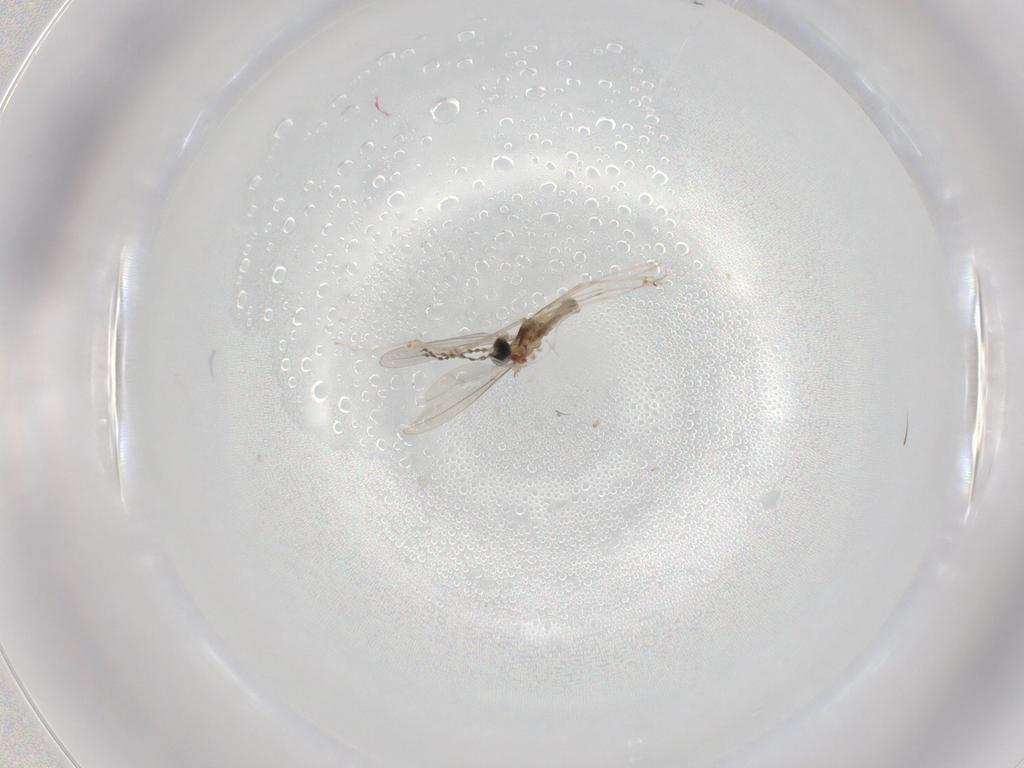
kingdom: Animalia
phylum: Arthropoda
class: Insecta
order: Diptera
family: Cecidomyiidae
